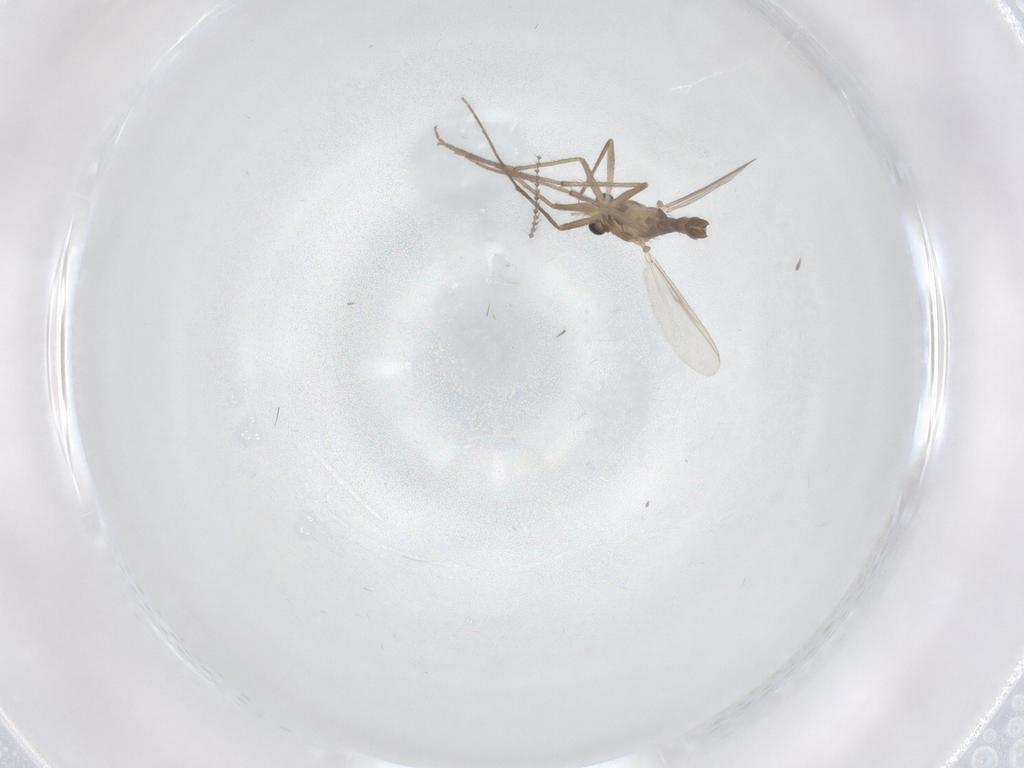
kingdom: Animalia
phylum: Arthropoda
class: Insecta
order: Diptera
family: Chironomidae
